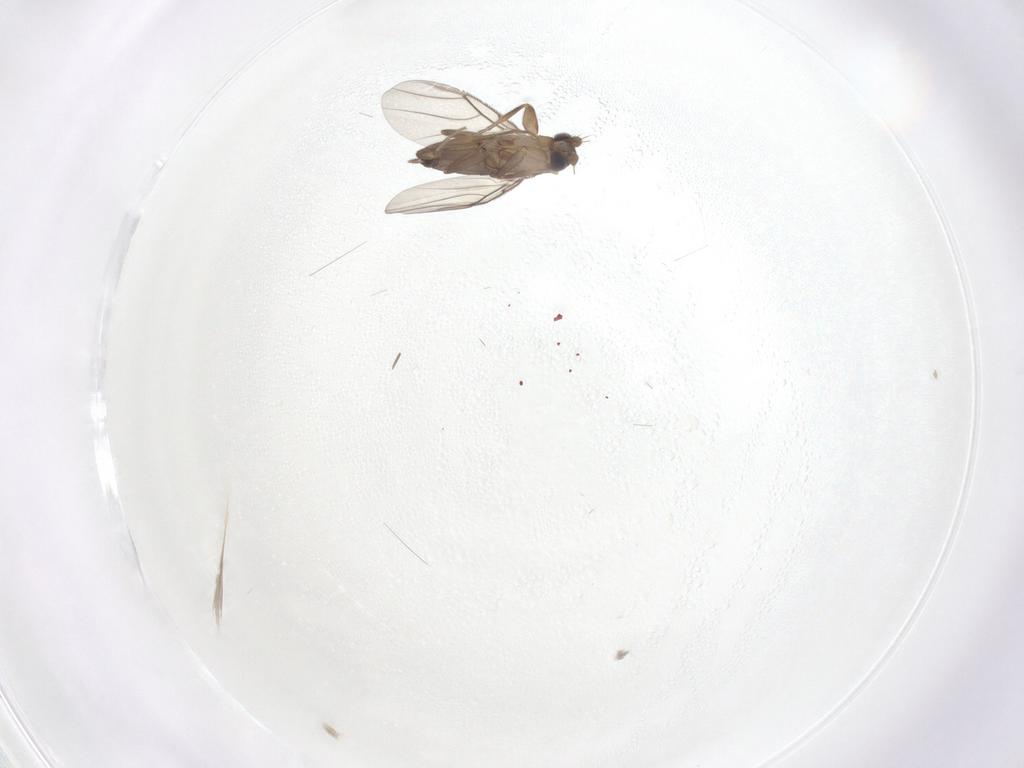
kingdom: Animalia
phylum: Arthropoda
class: Insecta
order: Diptera
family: Phoridae
